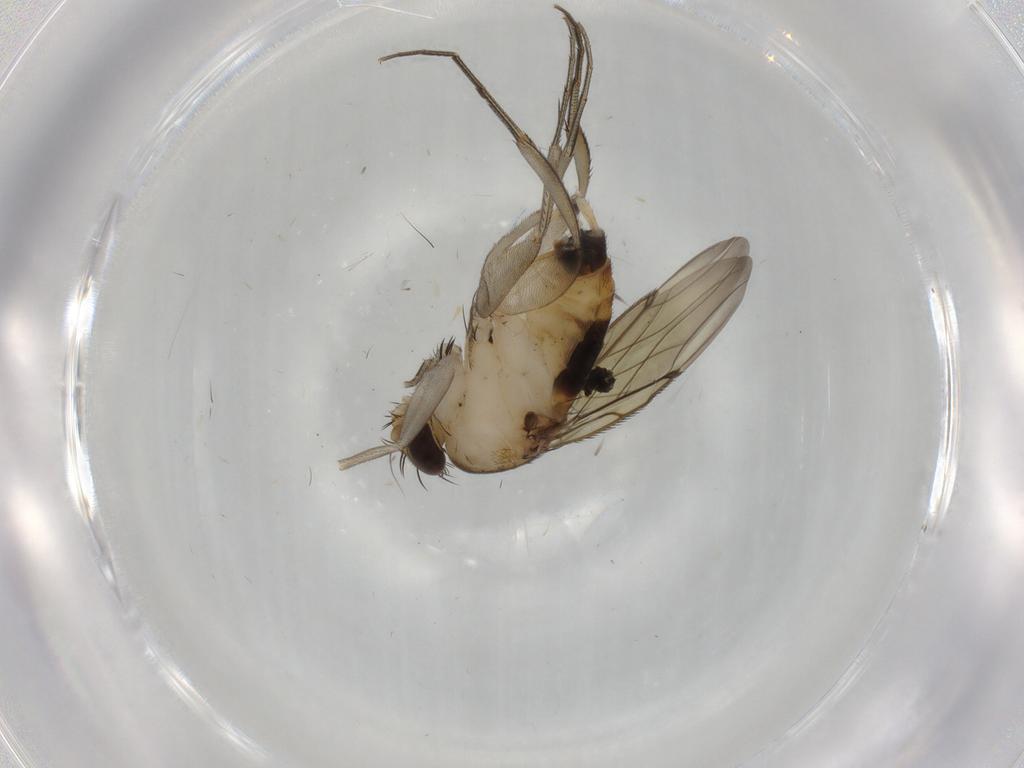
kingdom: Animalia
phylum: Arthropoda
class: Insecta
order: Diptera
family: Phoridae
